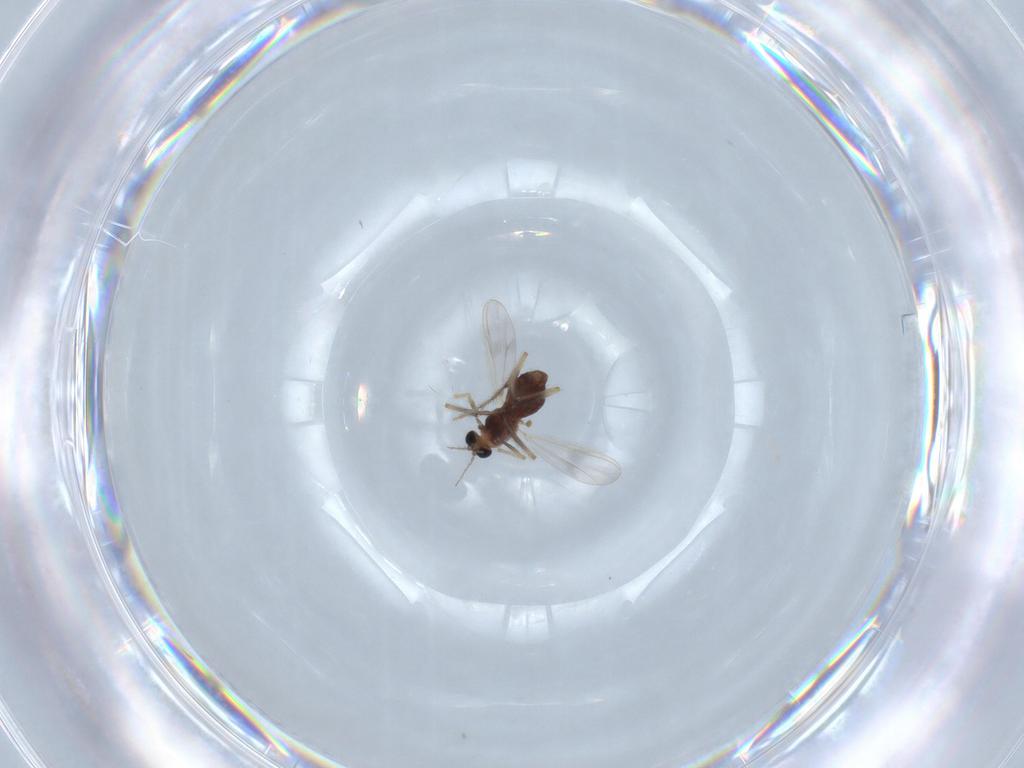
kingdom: Animalia
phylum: Arthropoda
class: Insecta
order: Diptera
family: Chironomidae
